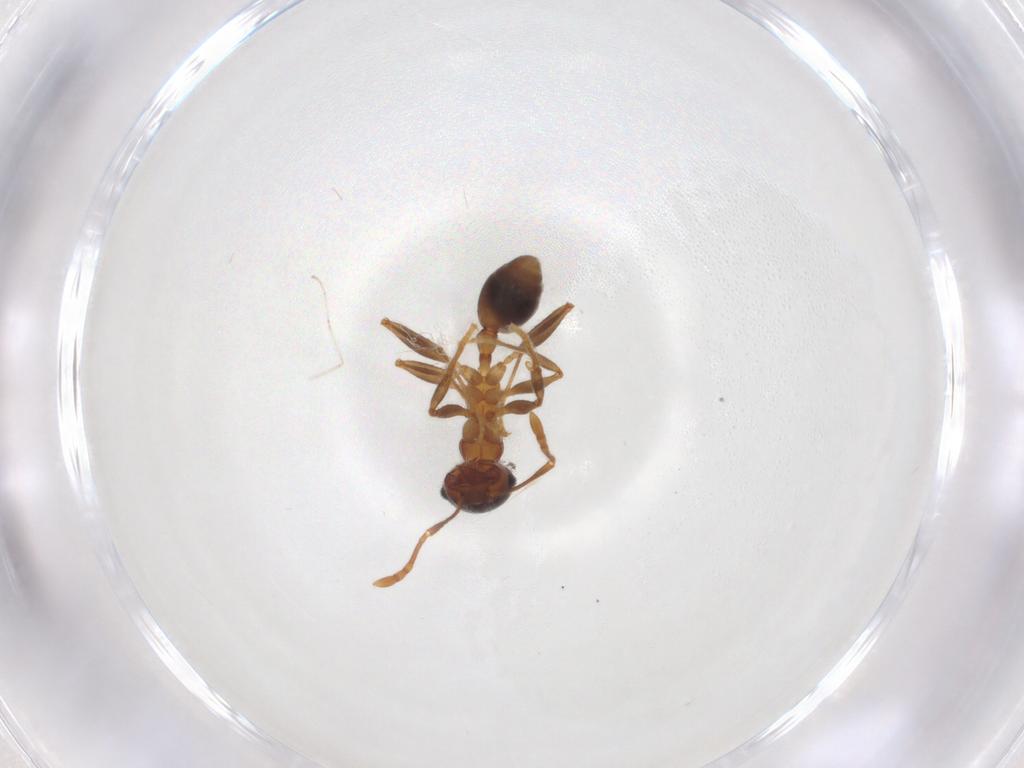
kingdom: Animalia
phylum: Arthropoda
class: Insecta
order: Hymenoptera
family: Formicidae
